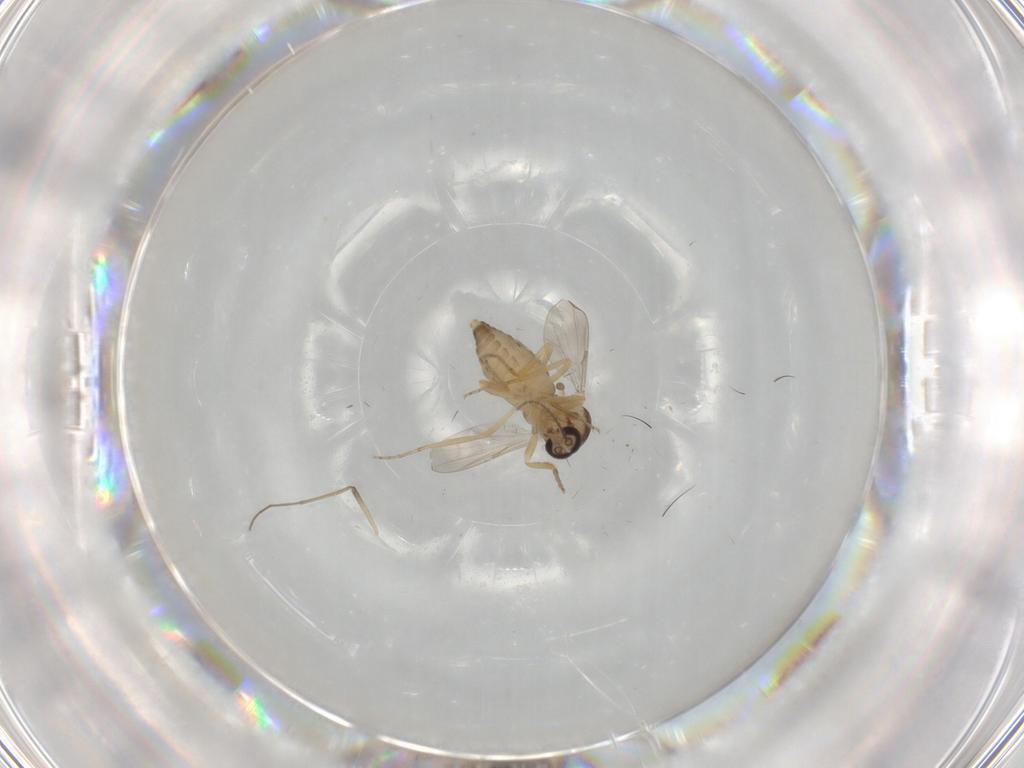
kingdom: Animalia
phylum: Arthropoda
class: Insecta
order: Diptera
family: Ceratopogonidae
